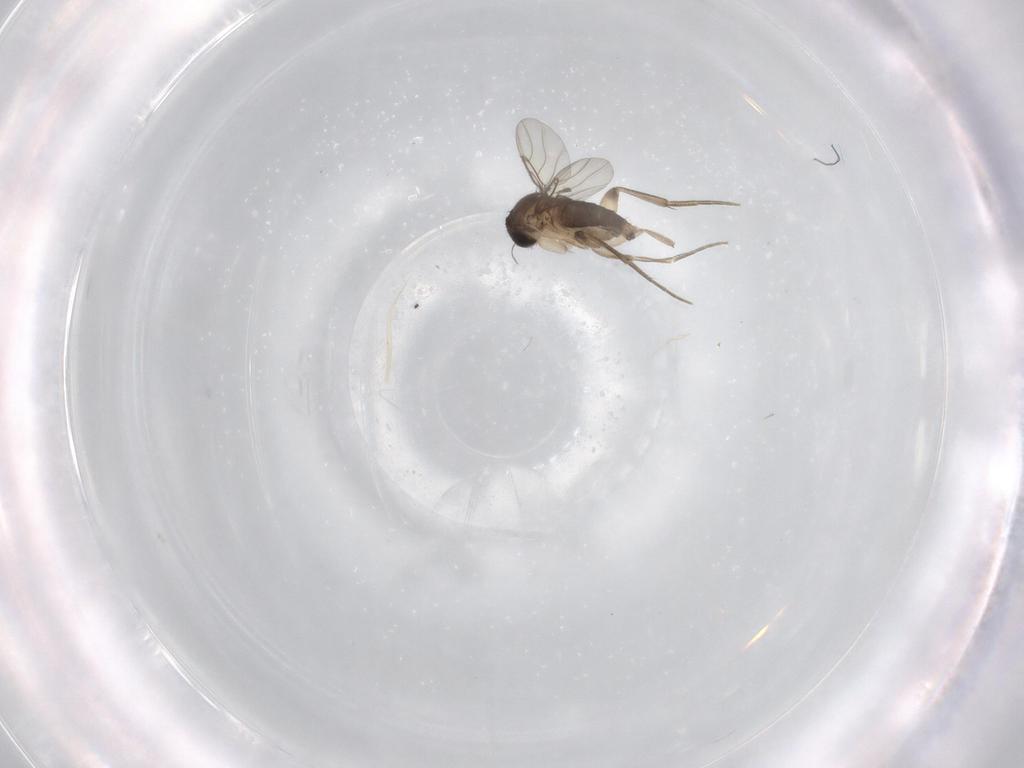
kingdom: Animalia
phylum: Arthropoda
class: Insecta
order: Diptera
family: Phoridae
